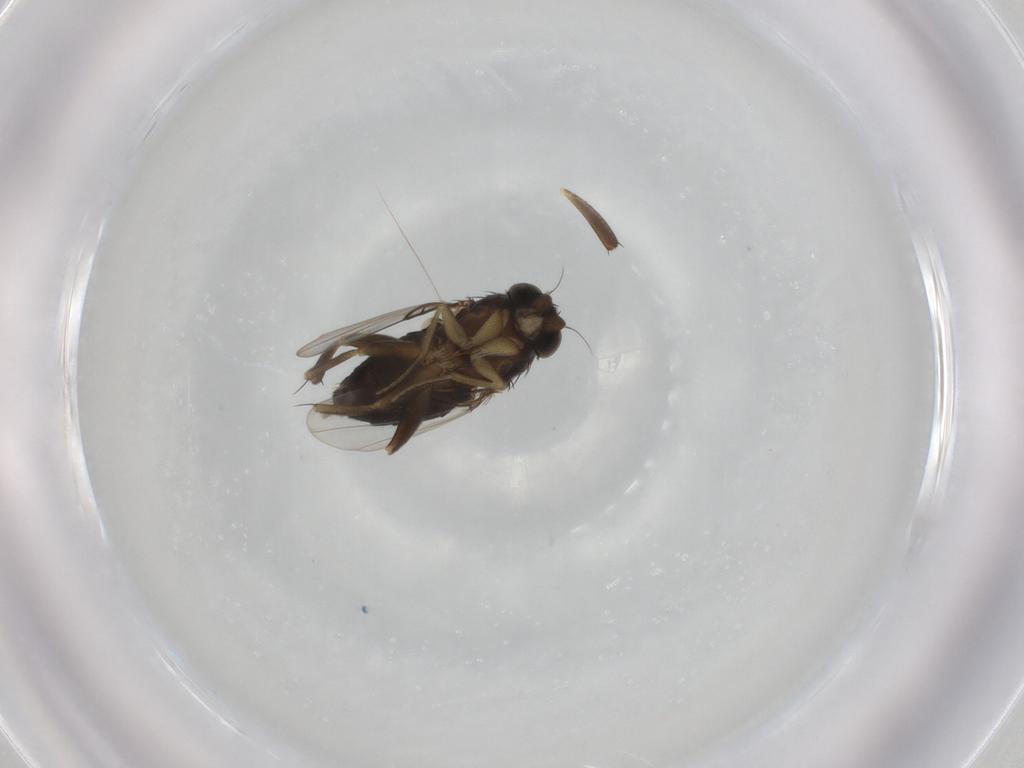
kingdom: Animalia
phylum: Arthropoda
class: Insecta
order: Diptera
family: Phoridae
